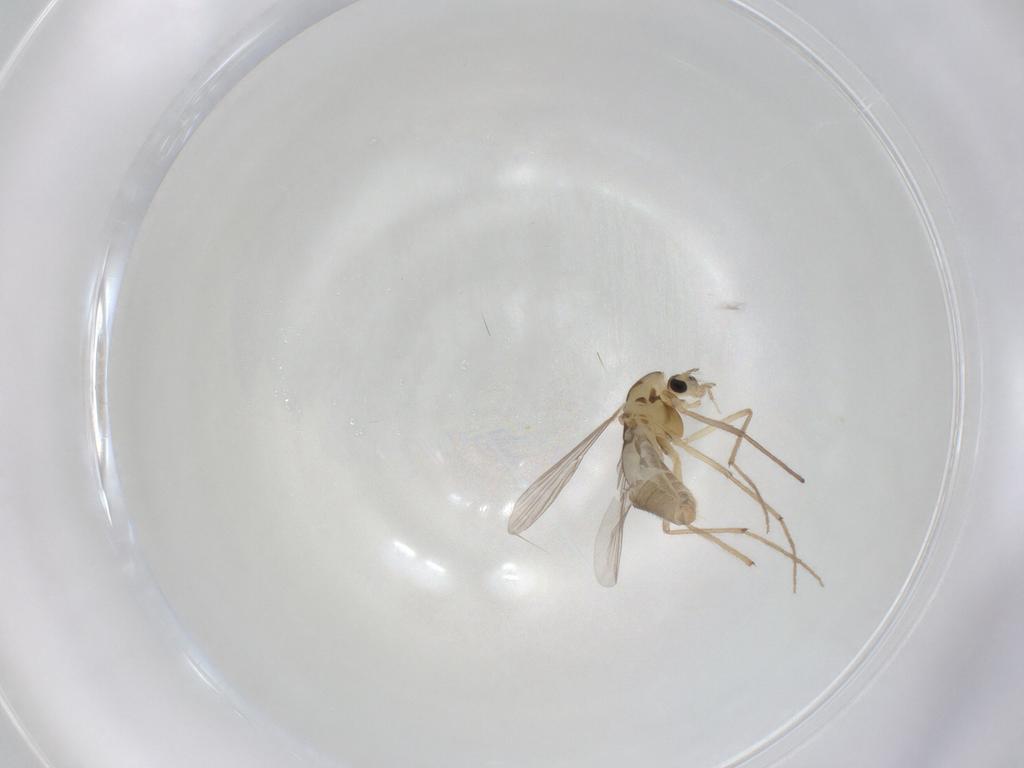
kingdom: Animalia
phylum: Arthropoda
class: Insecta
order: Diptera
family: Chironomidae
